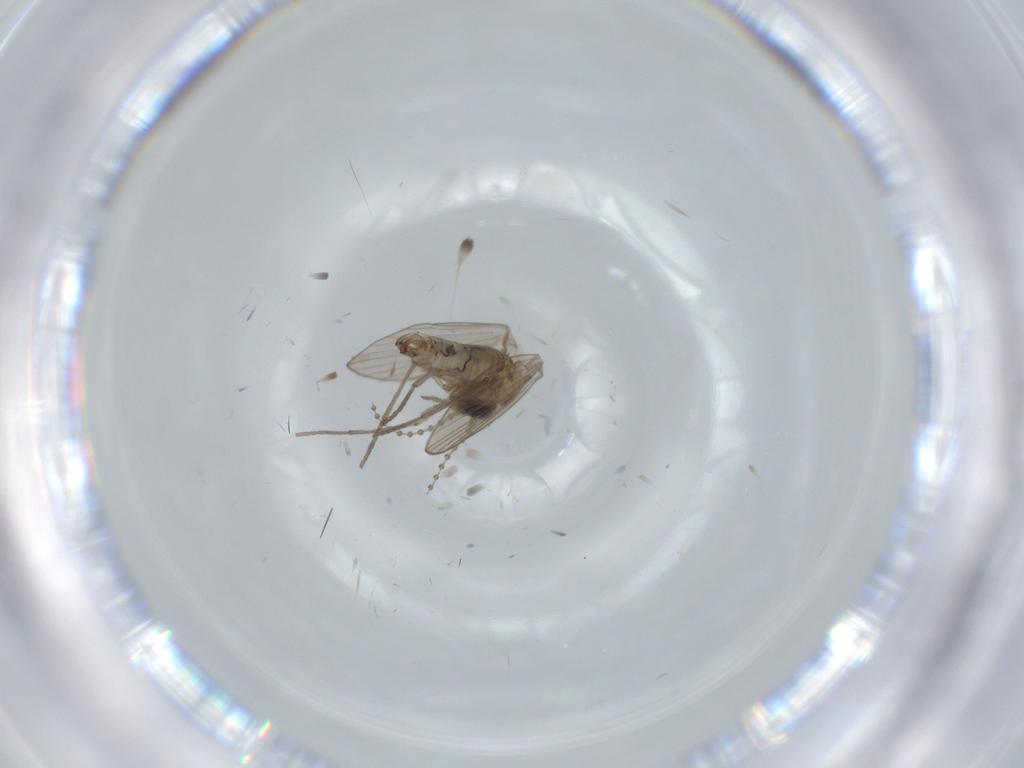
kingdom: Animalia
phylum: Arthropoda
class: Insecta
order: Diptera
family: Psychodidae
